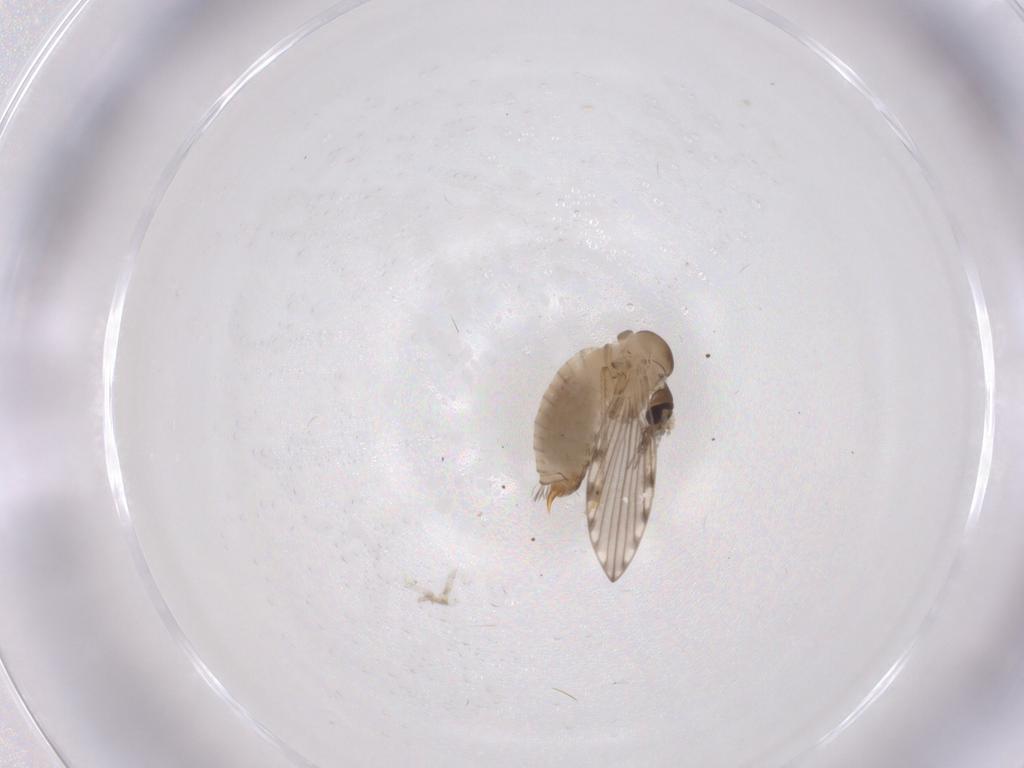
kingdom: Animalia
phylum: Arthropoda
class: Insecta
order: Diptera
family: Psychodidae
